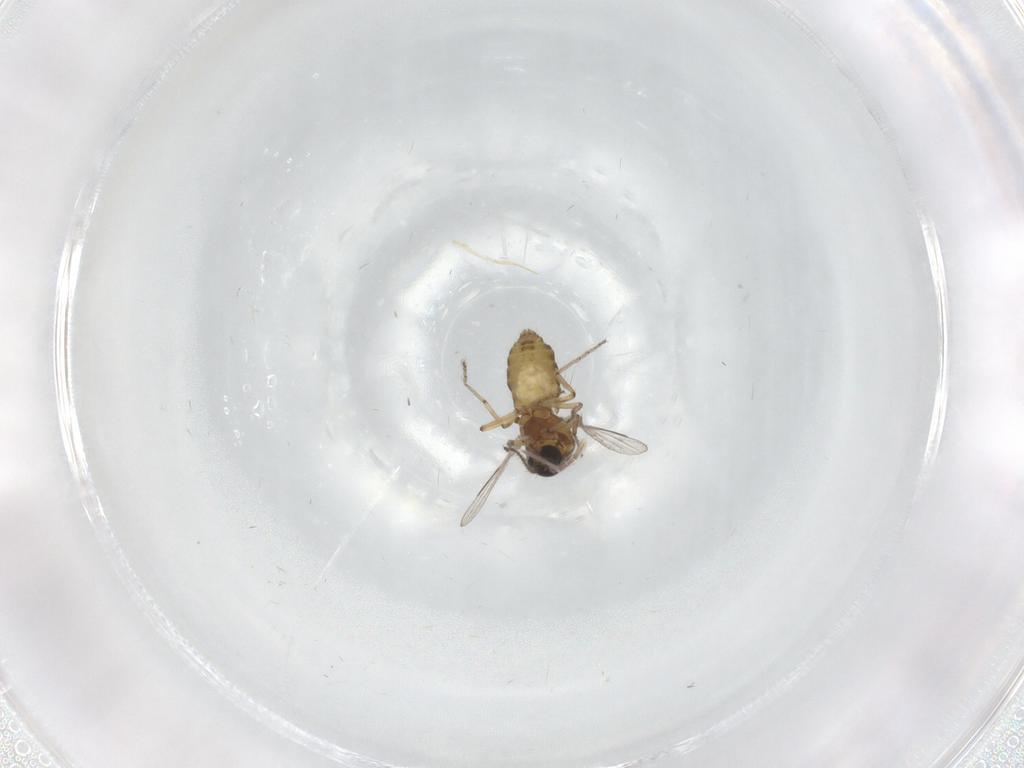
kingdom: Animalia
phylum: Arthropoda
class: Insecta
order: Diptera
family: Ceratopogonidae
